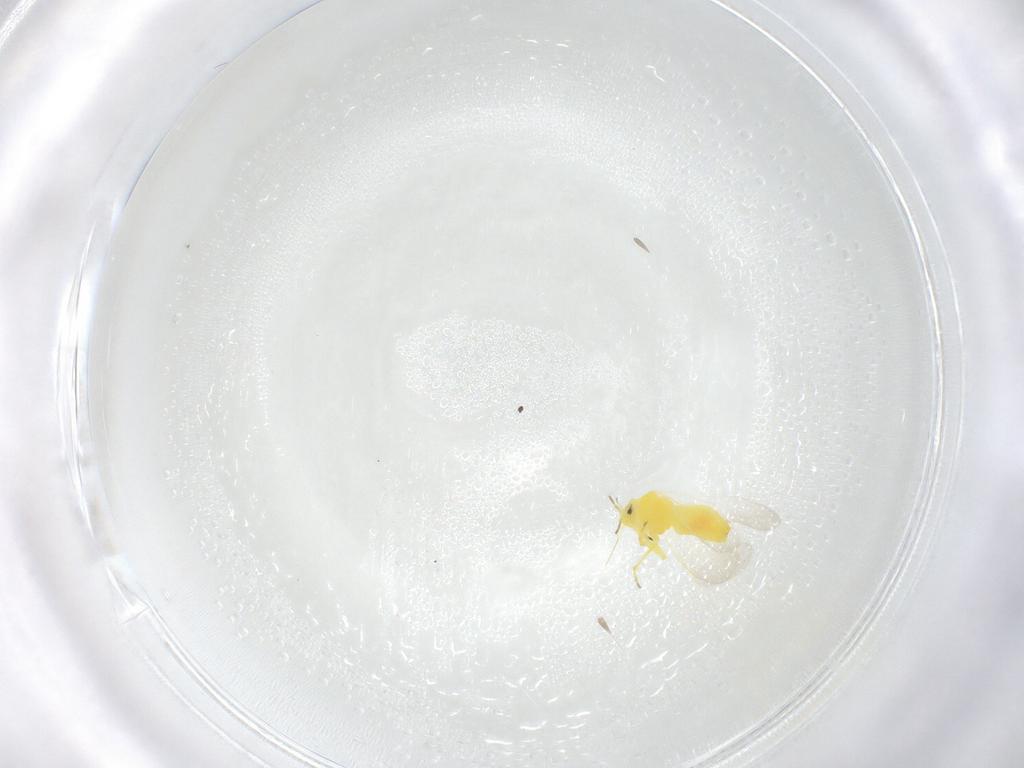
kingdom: Animalia
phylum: Arthropoda
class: Insecta
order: Hemiptera
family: Aleyrodidae
